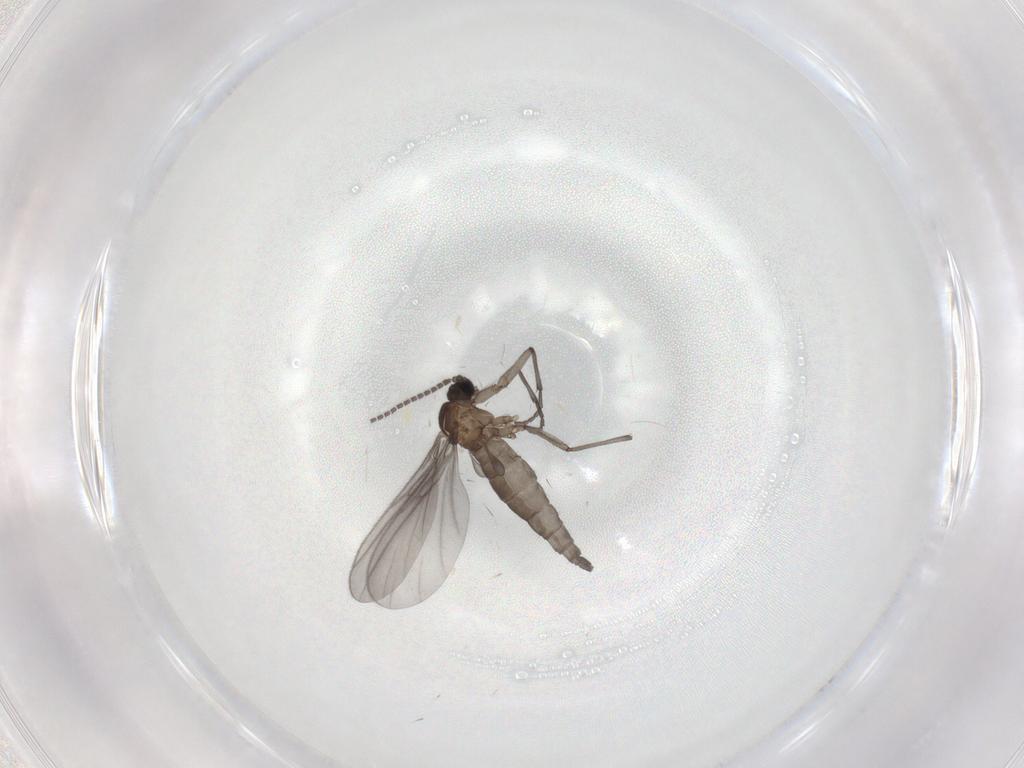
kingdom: Animalia
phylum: Arthropoda
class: Insecta
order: Diptera
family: Sciaridae
